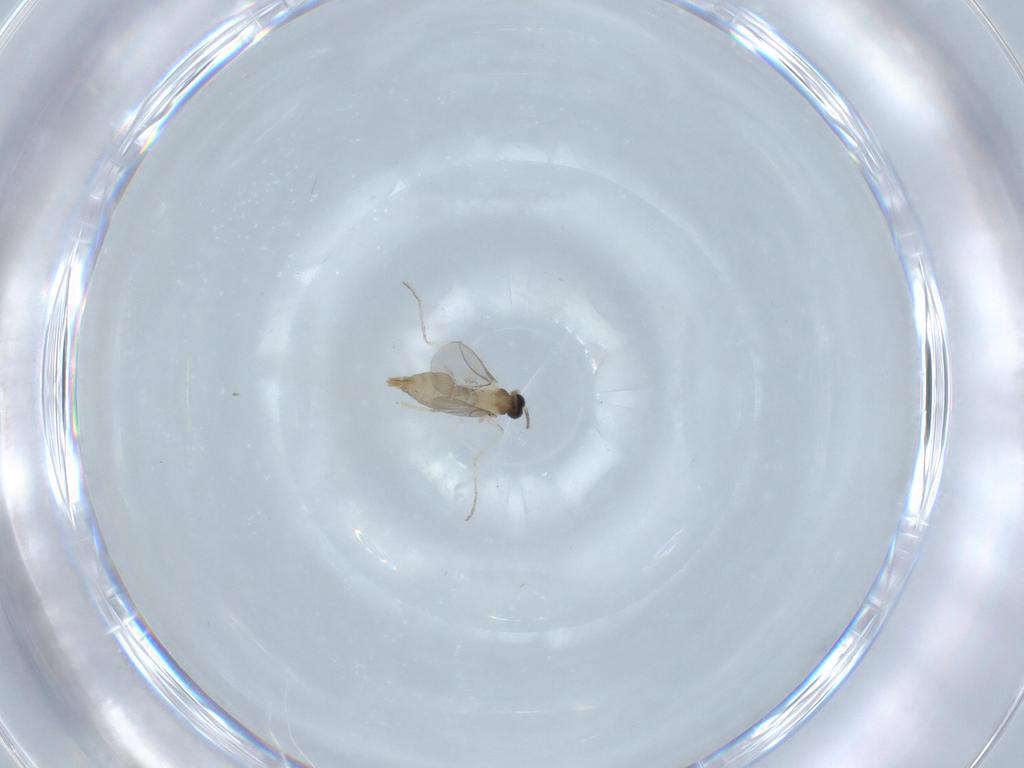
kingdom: Animalia
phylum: Arthropoda
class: Insecta
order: Diptera
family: Cecidomyiidae
